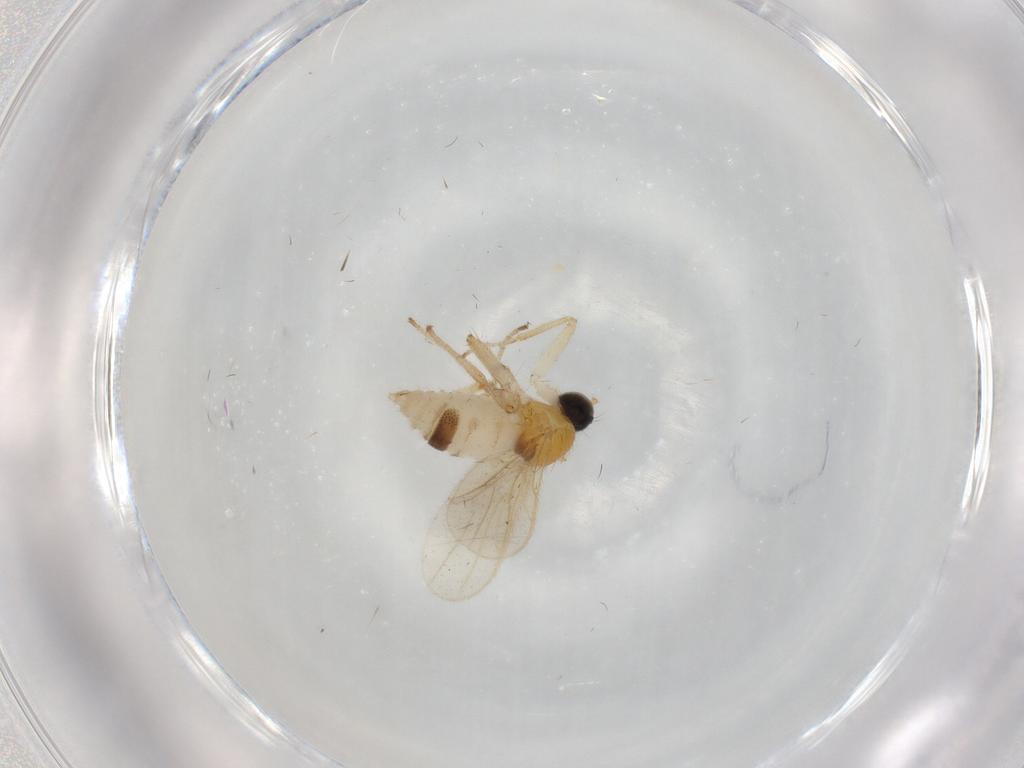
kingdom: Animalia
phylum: Arthropoda
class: Insecta
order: Diptera
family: Hybotidae
